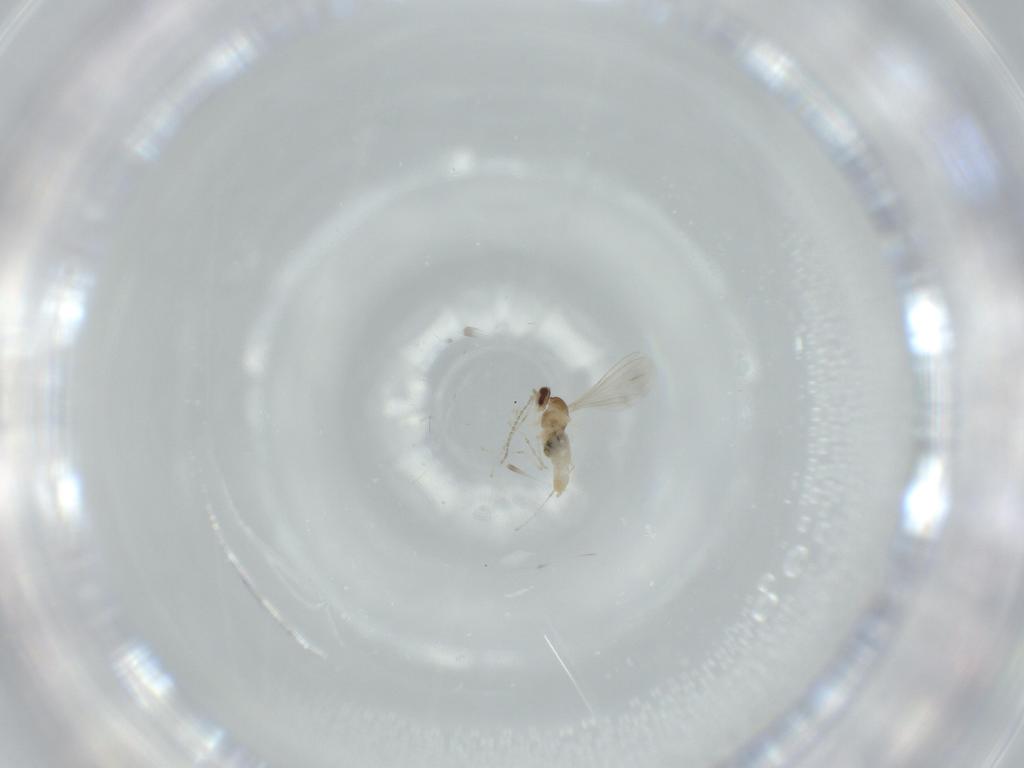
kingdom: Animalia
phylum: Arthropoda
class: Insecta
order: Diptera
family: Cecidomyiidae
